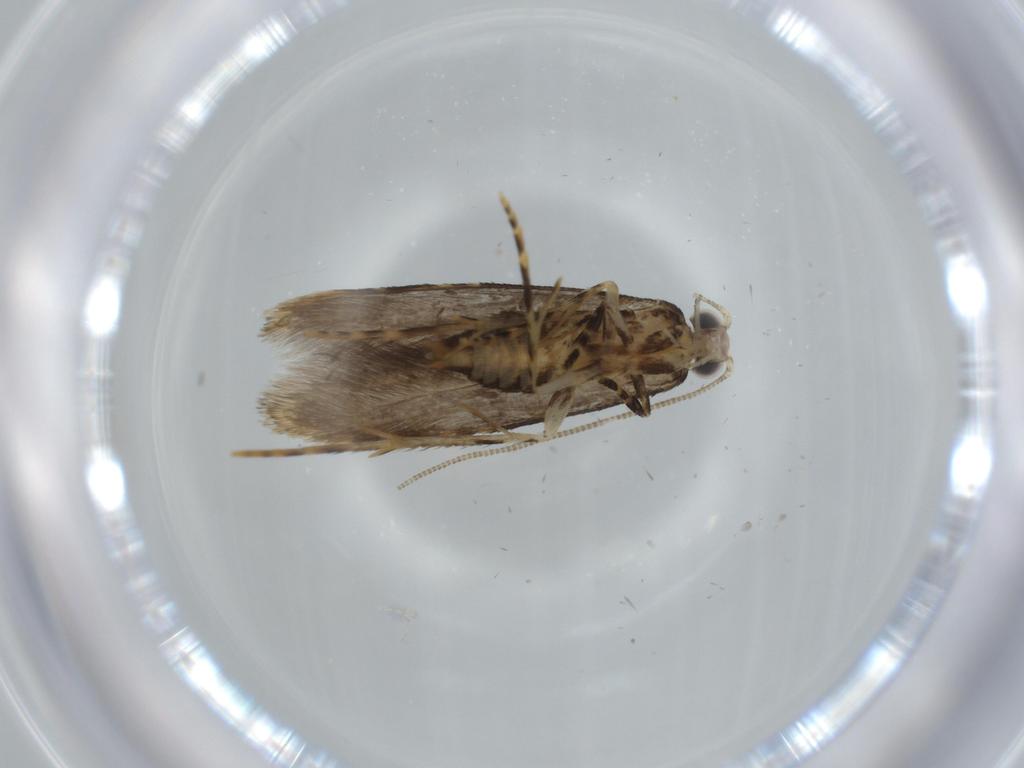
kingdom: Animalia
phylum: Arthropoda
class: Insecta
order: Lepidoptera
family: Tineidae
